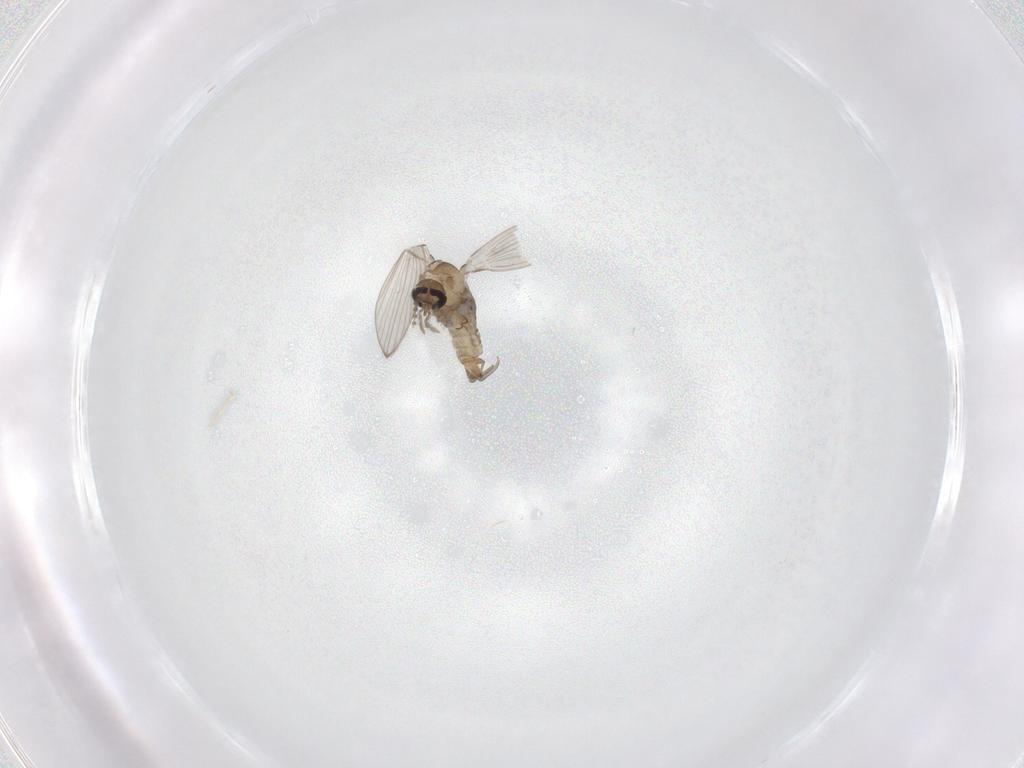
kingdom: Animalia
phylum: Arthropoda
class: Insecta
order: Diptera
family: Psychodidae
